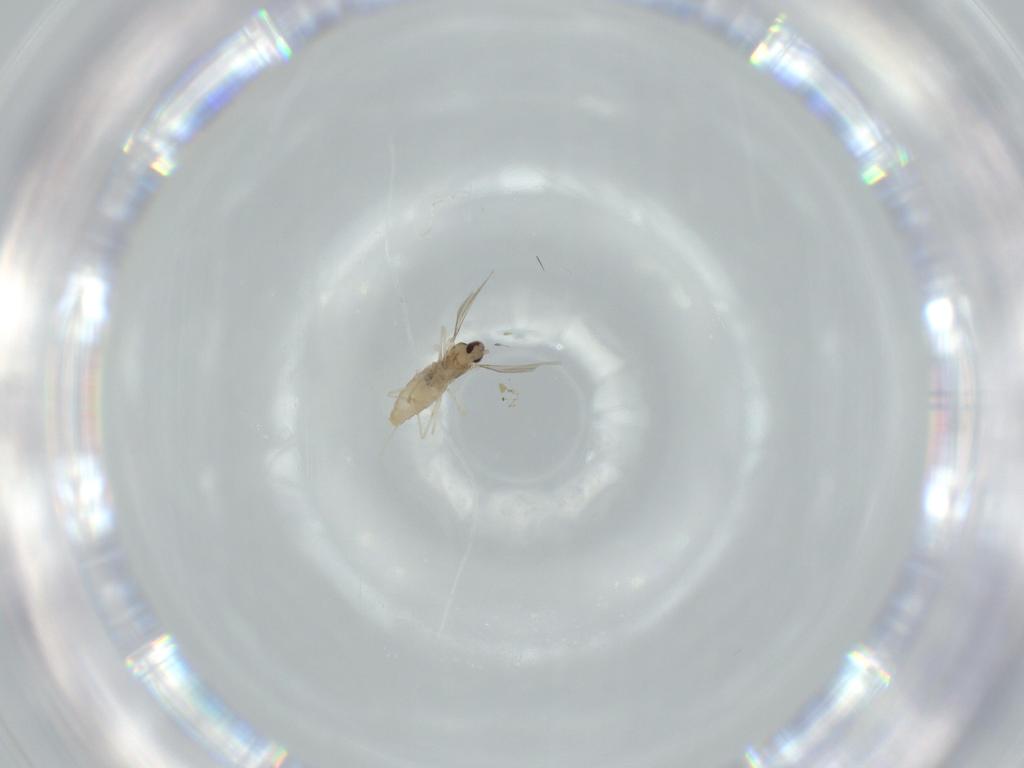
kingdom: Animalia
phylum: Arthropoda
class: Insecta
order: Diptera
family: Cecidomyiidae
